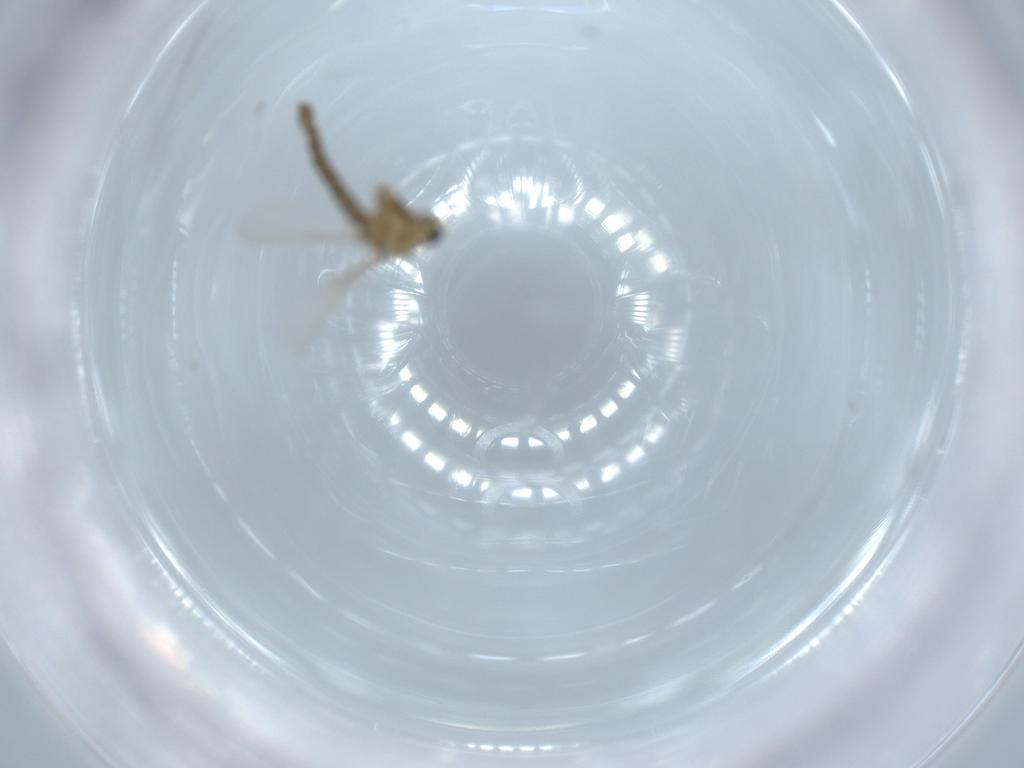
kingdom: Animalia
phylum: Arthropoda
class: Insecta
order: Diptera
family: Chironomidae
